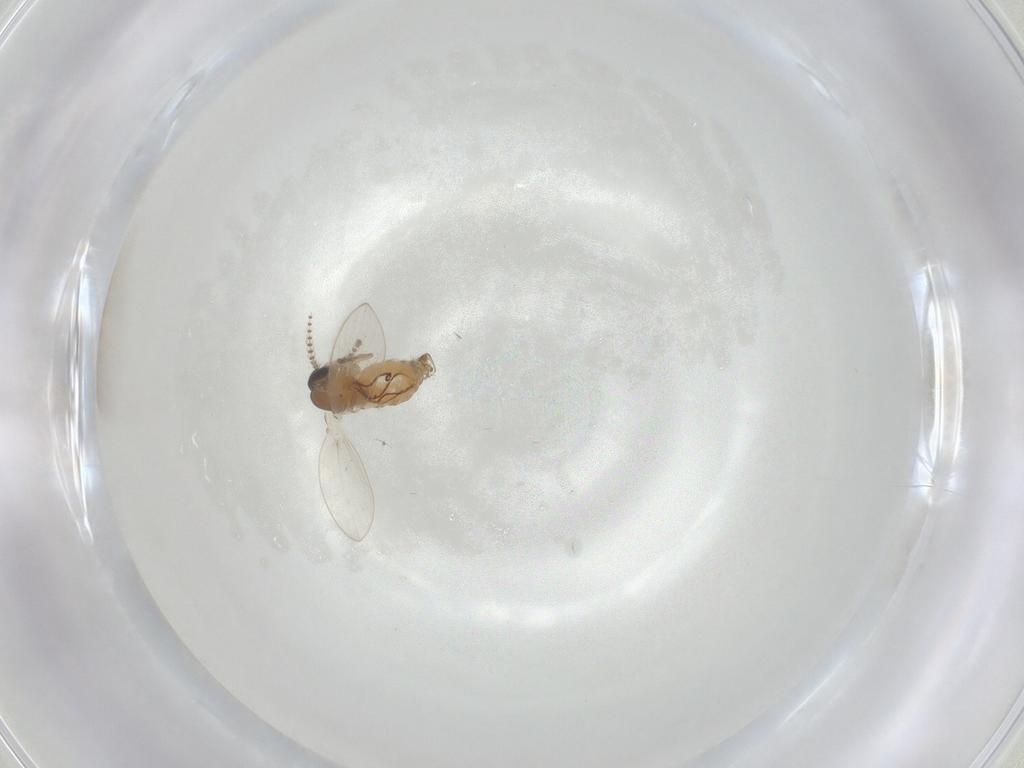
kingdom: Animalia
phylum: Arthropoda
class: Insecta
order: Diptera
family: Psychodidae
